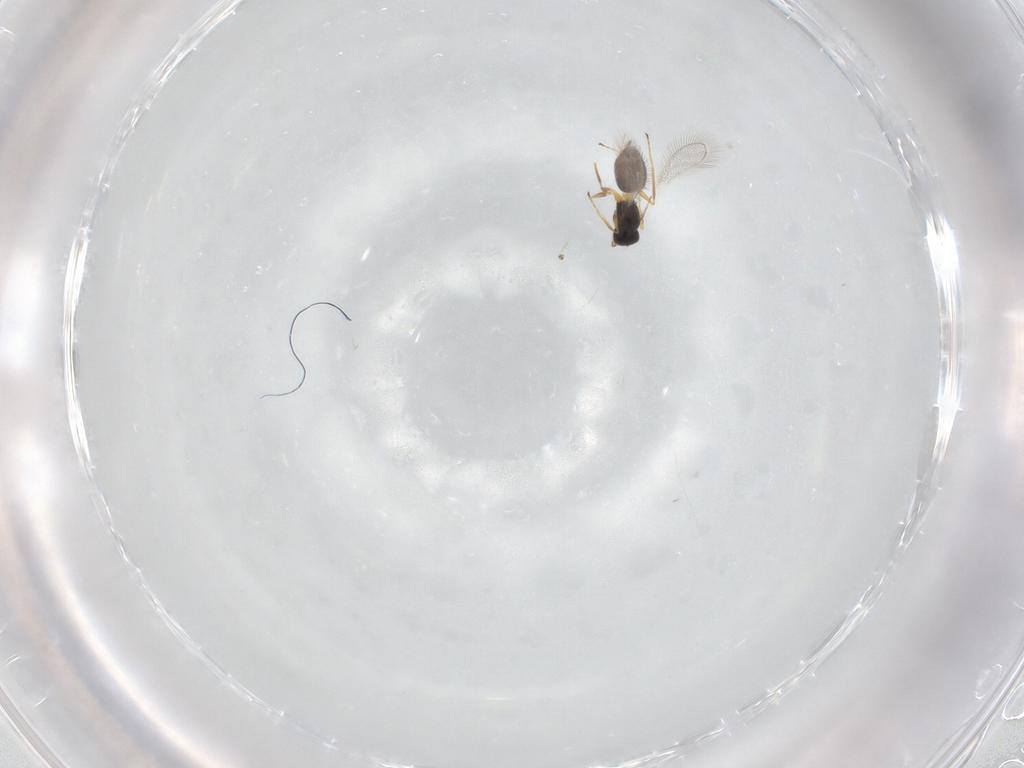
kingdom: Animalia
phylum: Arthropoda
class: Insecta
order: Hymenoptera
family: Mymaridae
